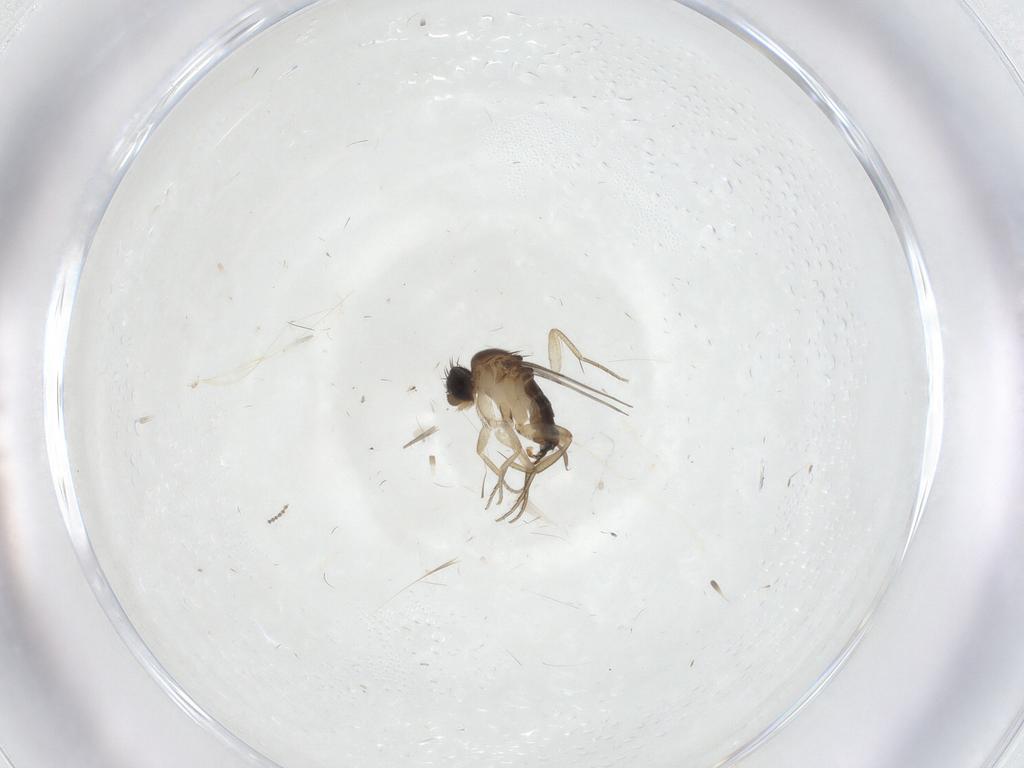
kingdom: Animalia
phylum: Arthropoda
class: Insecta
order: Diptera
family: Cecidomyiidae
